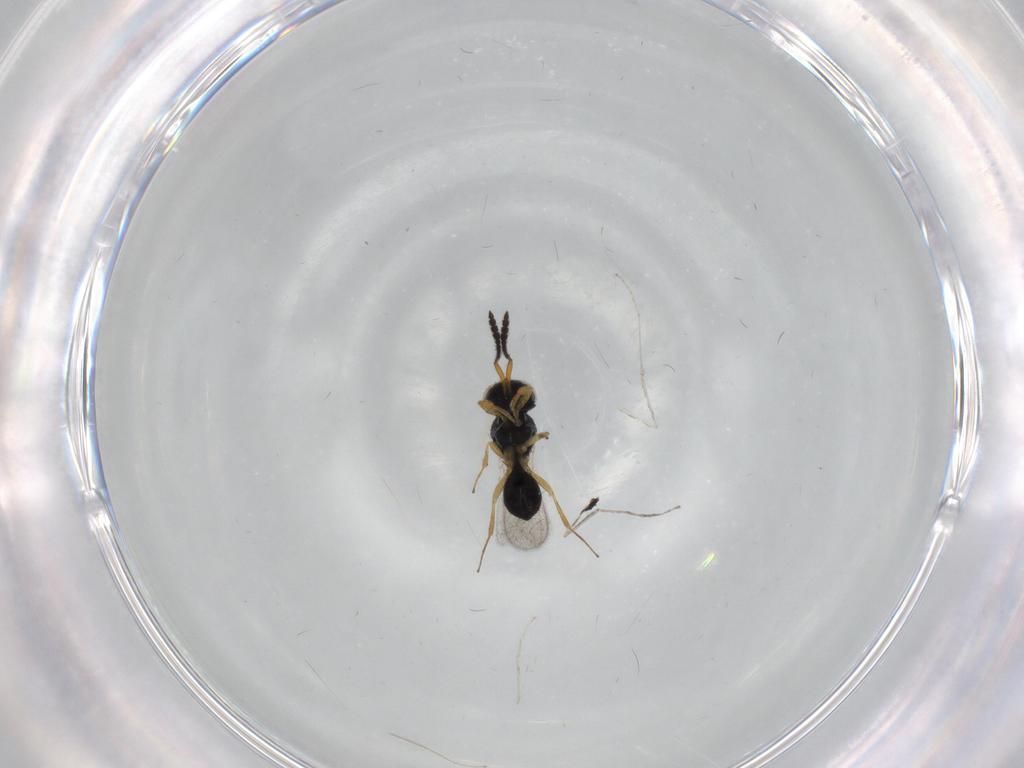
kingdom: Animalia
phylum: Arthropoda
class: Insecta
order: Hymenoptera
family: Scelionidae
